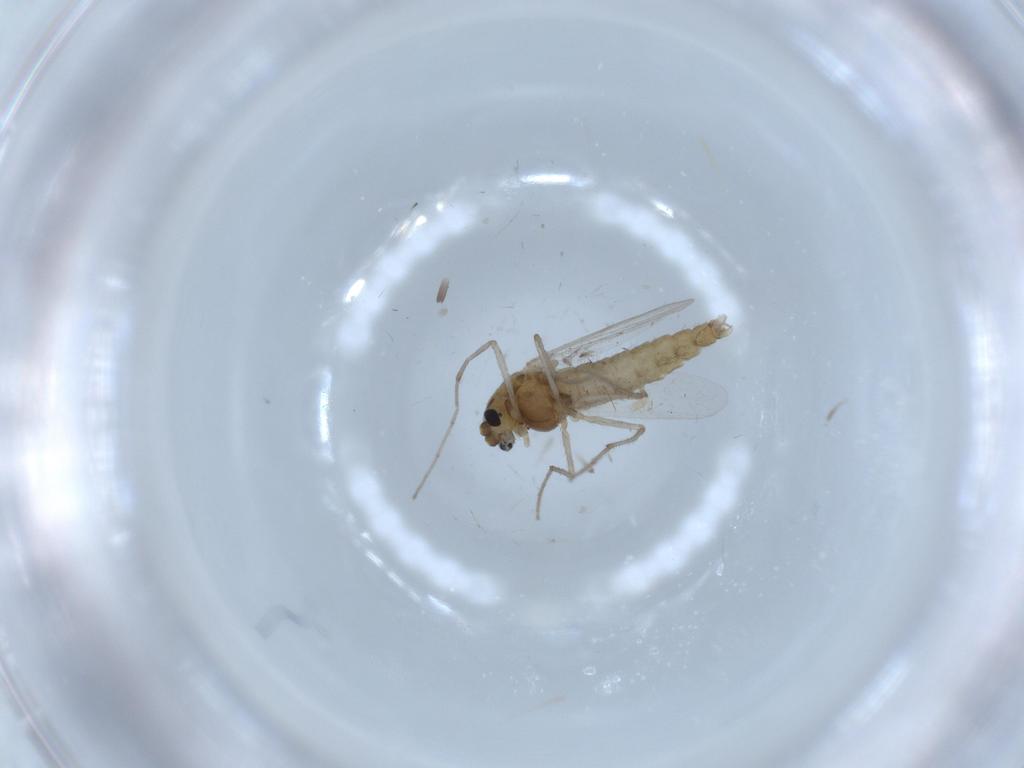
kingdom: Animalia
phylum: Arthropoda
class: Insecta
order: Diptera
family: Chironomidae
